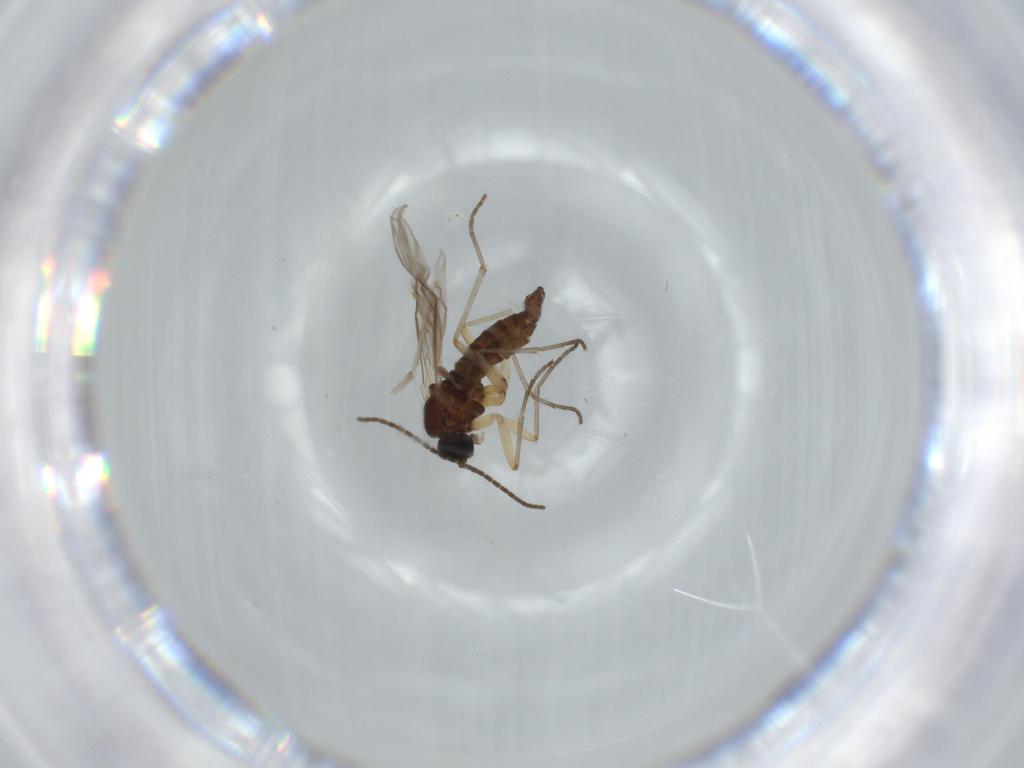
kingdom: Animalia
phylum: Arthropoda
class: Insecta
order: Diptera
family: Sciaridae
